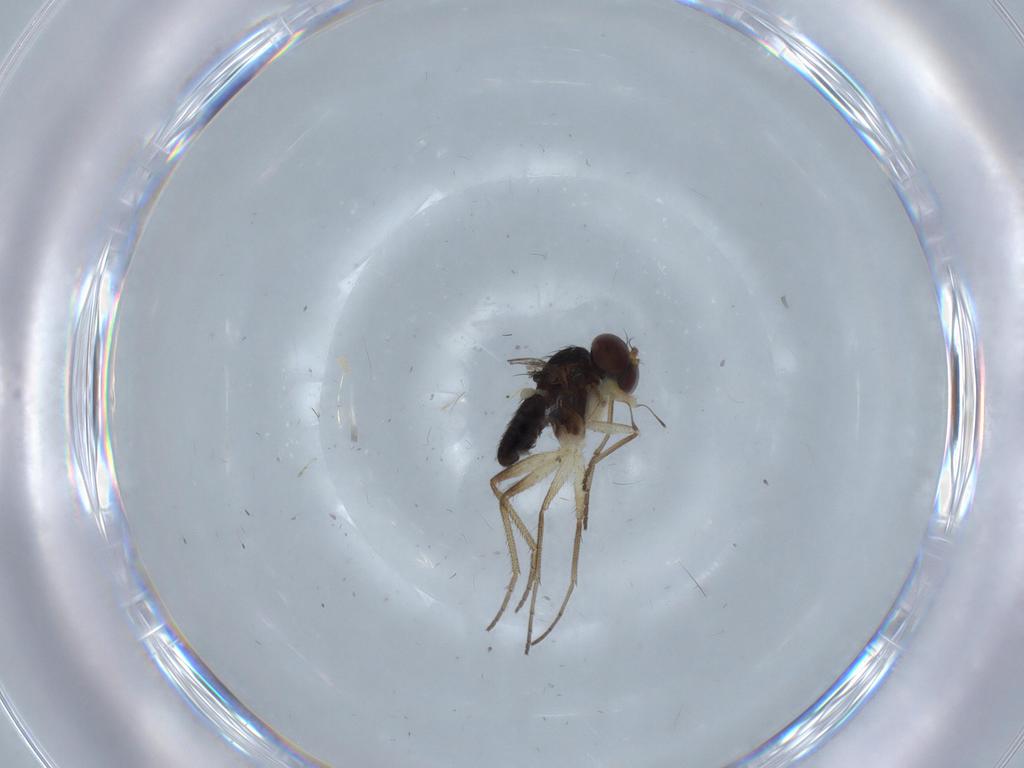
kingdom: Animalia
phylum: Arthropoda
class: Insecta
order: Diptera
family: Dolichopodidae
